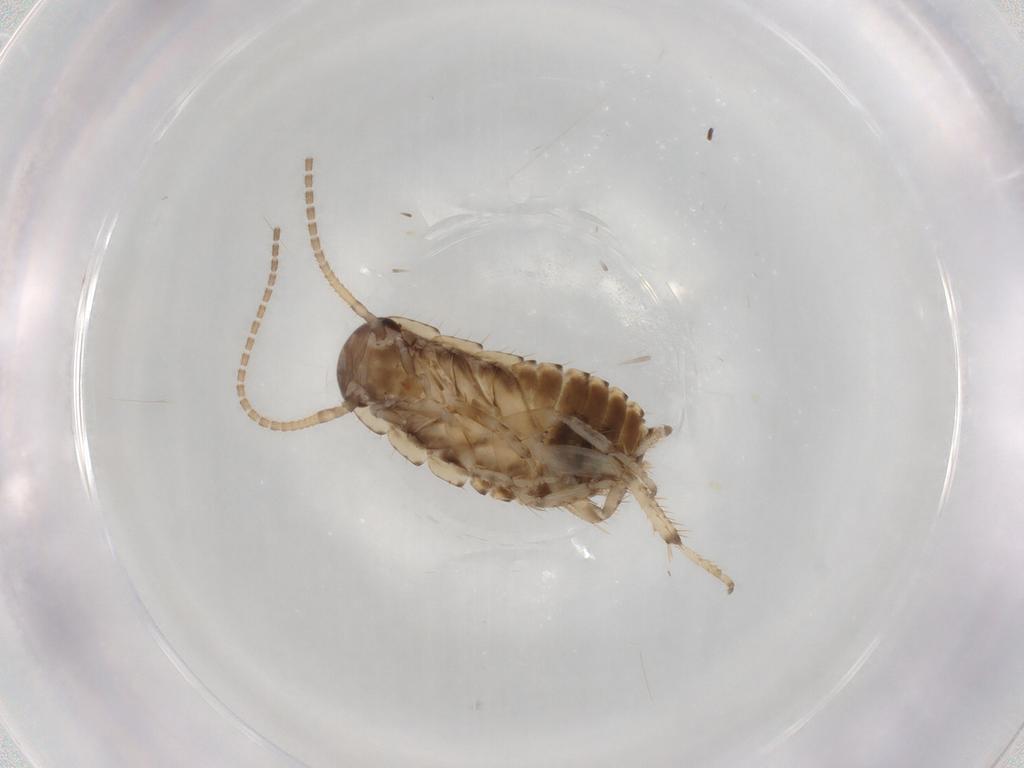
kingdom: Animalia
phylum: Arthropoda
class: Insecta
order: Blattodea
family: Blaberidae
